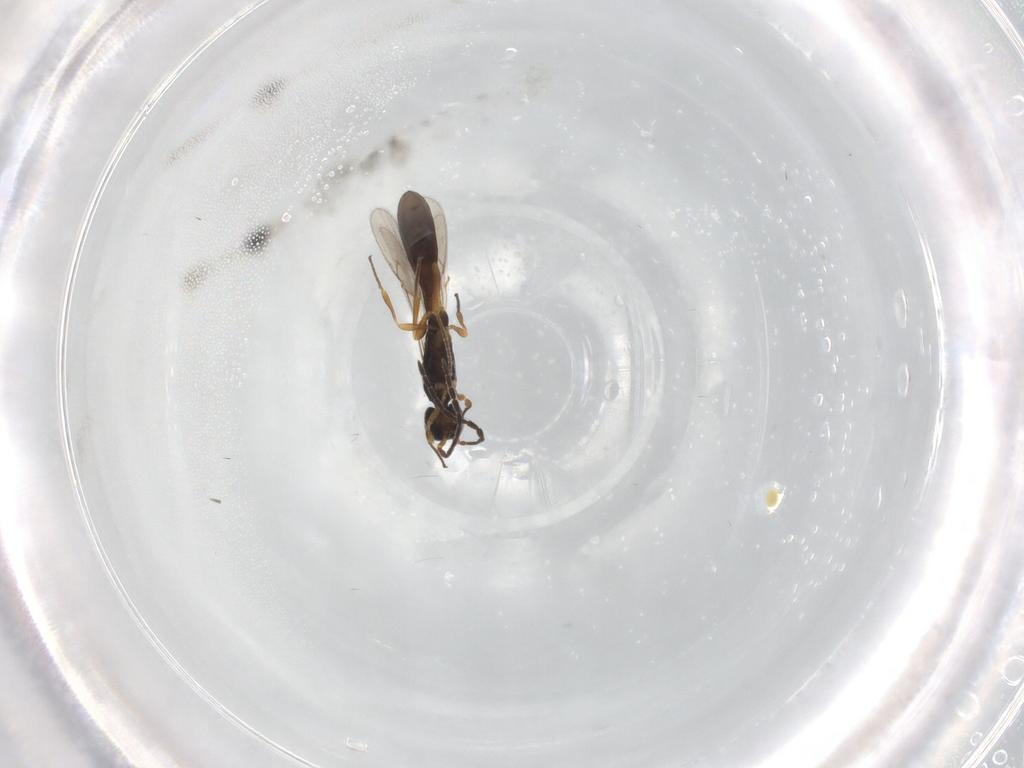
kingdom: Animalia
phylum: Arthropoda
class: Insecta
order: Hymenoptera
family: Scelionidae
